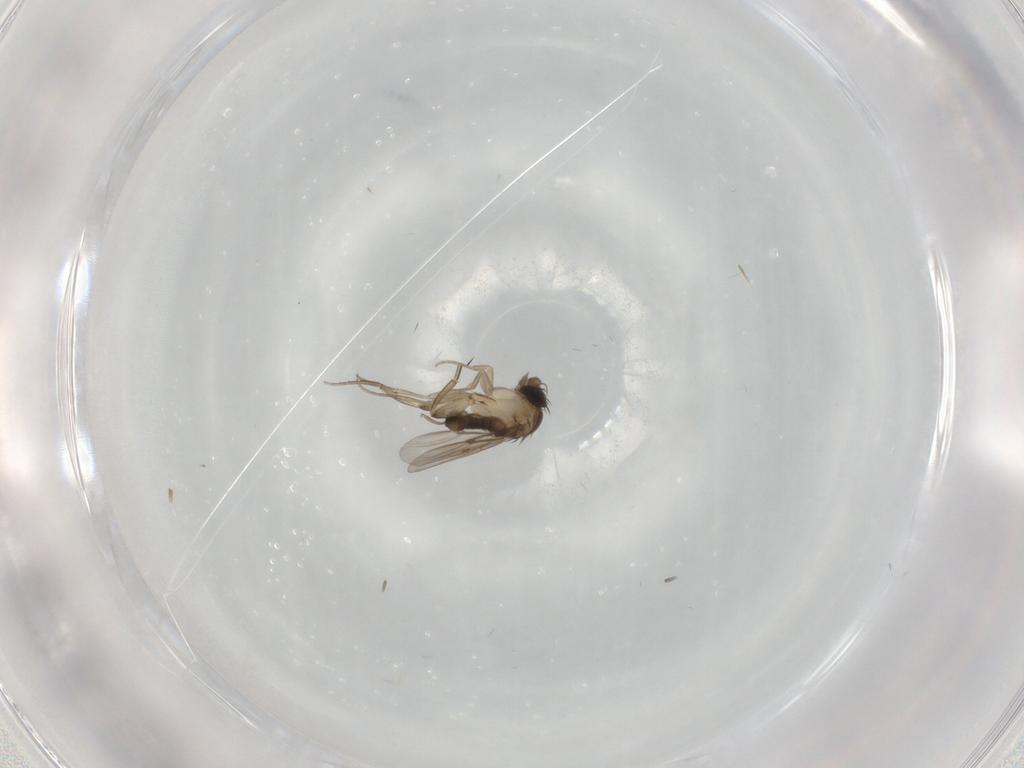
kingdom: Animalia
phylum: Arthropoda
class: Insecta
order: Diptera
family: Phoridae
